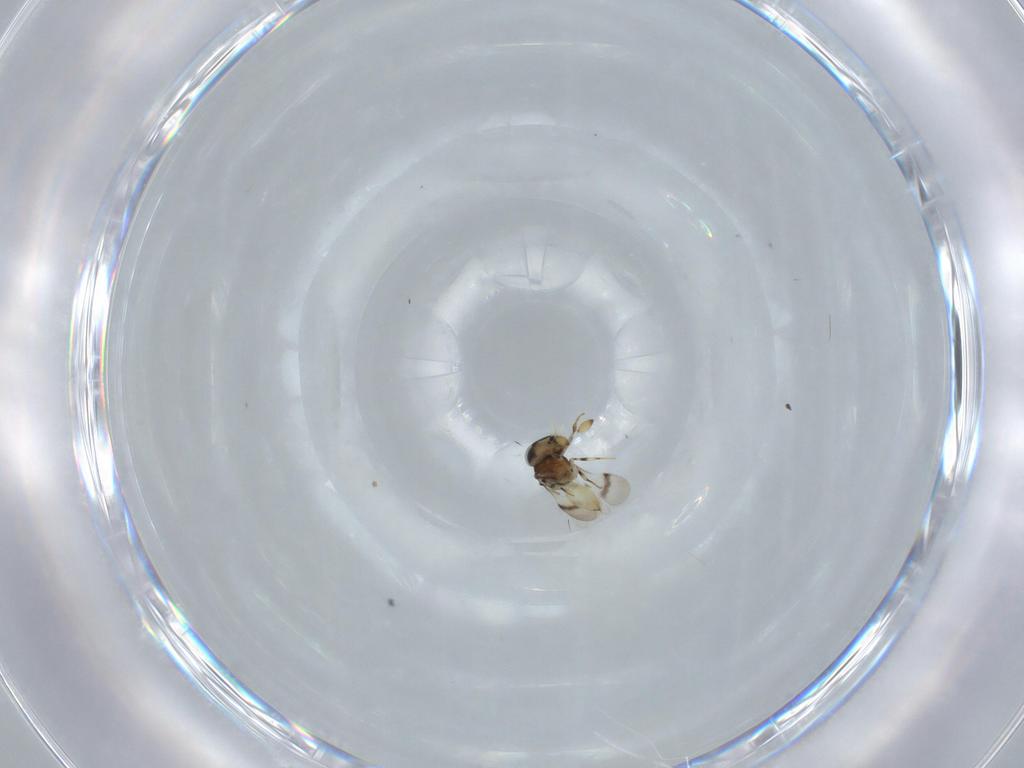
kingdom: Animalia
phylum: Arthropoda
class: Insecta
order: Hymenoptera
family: Scelionidae
